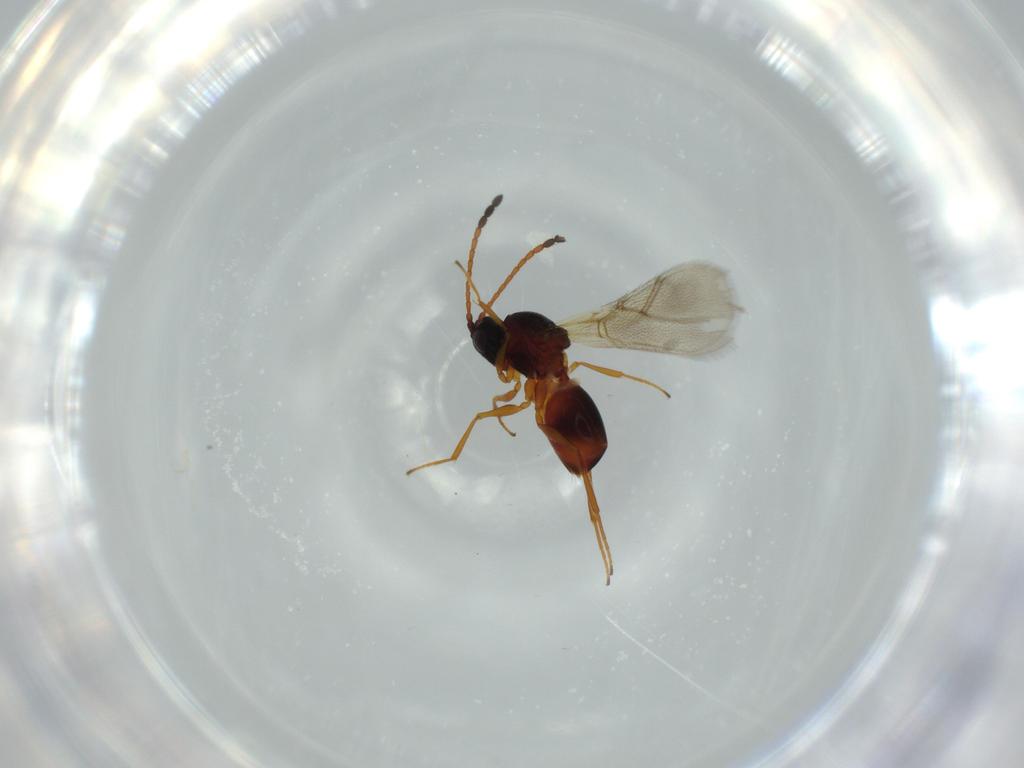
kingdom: Animalia
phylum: Arthropoda
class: Insecta
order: Hymenoptera
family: Figitidae
